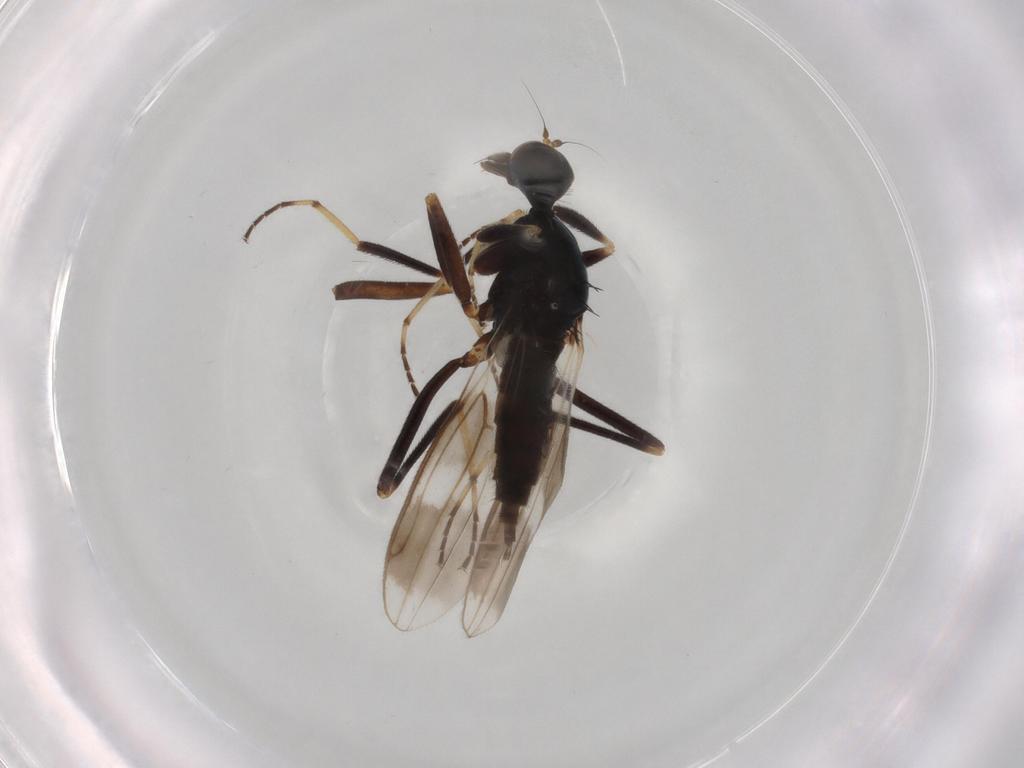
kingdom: Animalia
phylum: Arthropoda
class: Insecta
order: Diptera
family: Hybotidae
